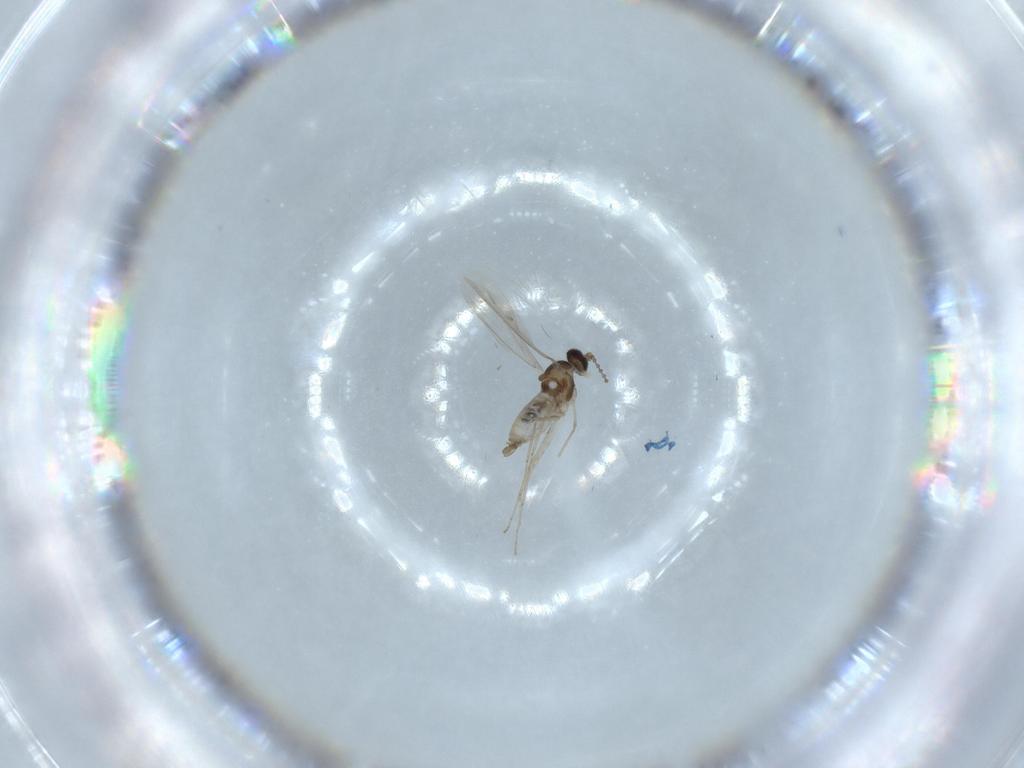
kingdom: Animalia
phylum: Arthropoda
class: Insecta
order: Diptera
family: Cecidomyiidae
